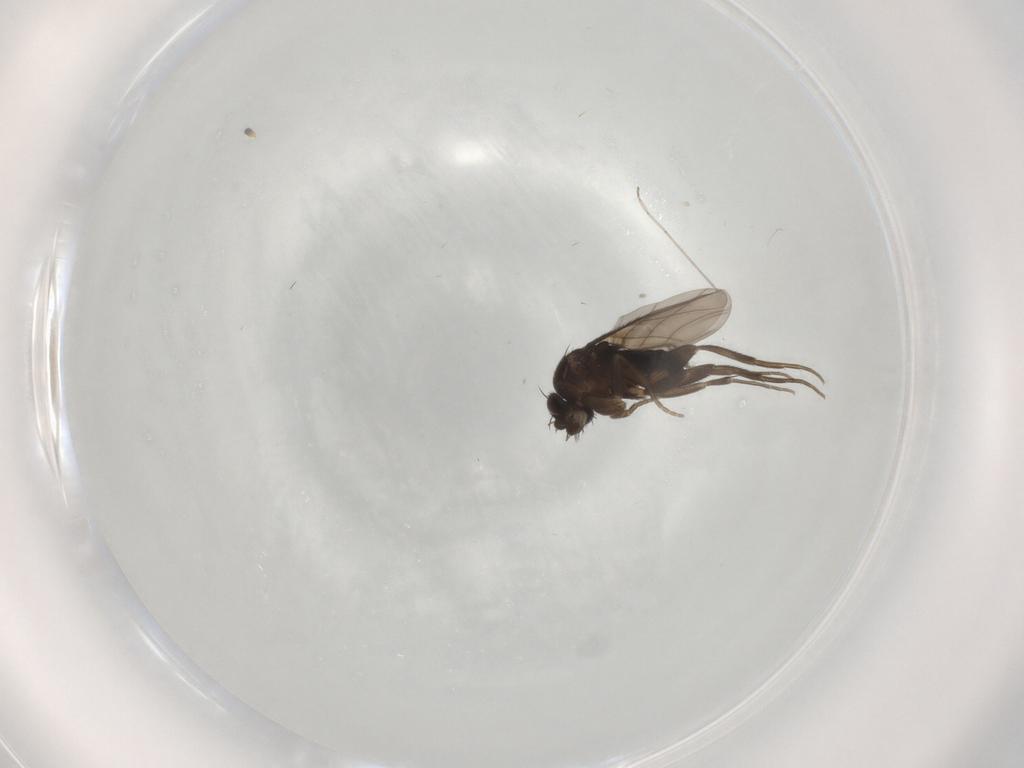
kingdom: Animalia
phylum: Arthropoda
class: Insecta
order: Diptera
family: Phoridae
